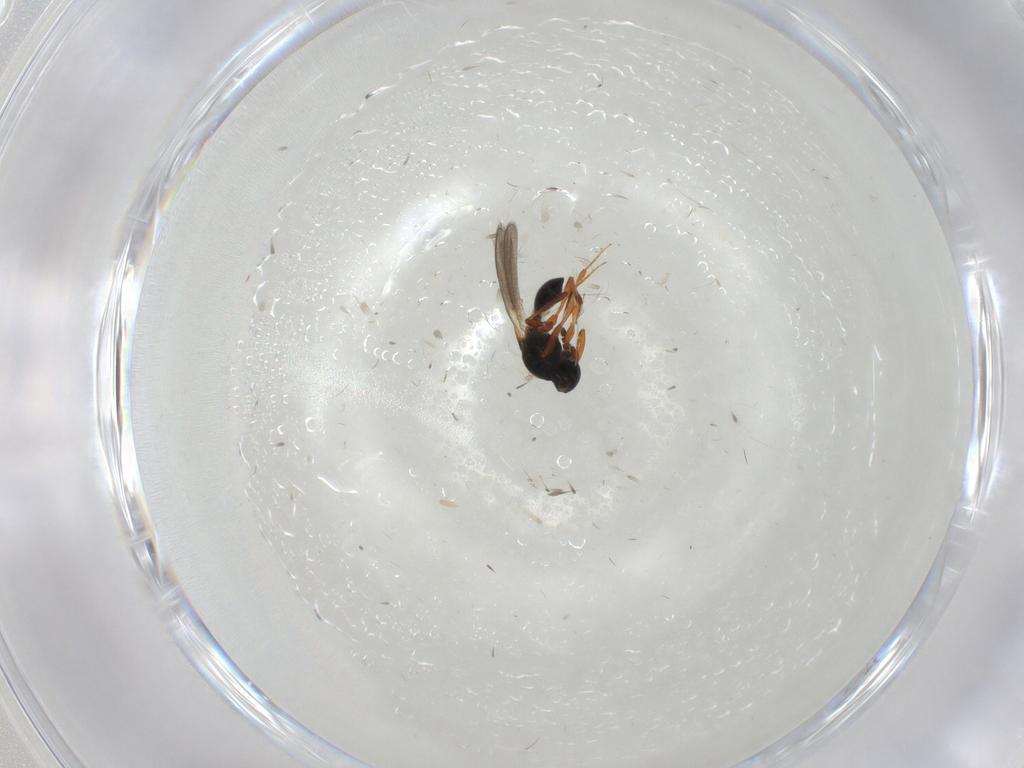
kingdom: Animalia
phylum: Arthropoda
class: Insecta
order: Hymenoptera
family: Platygastridae
